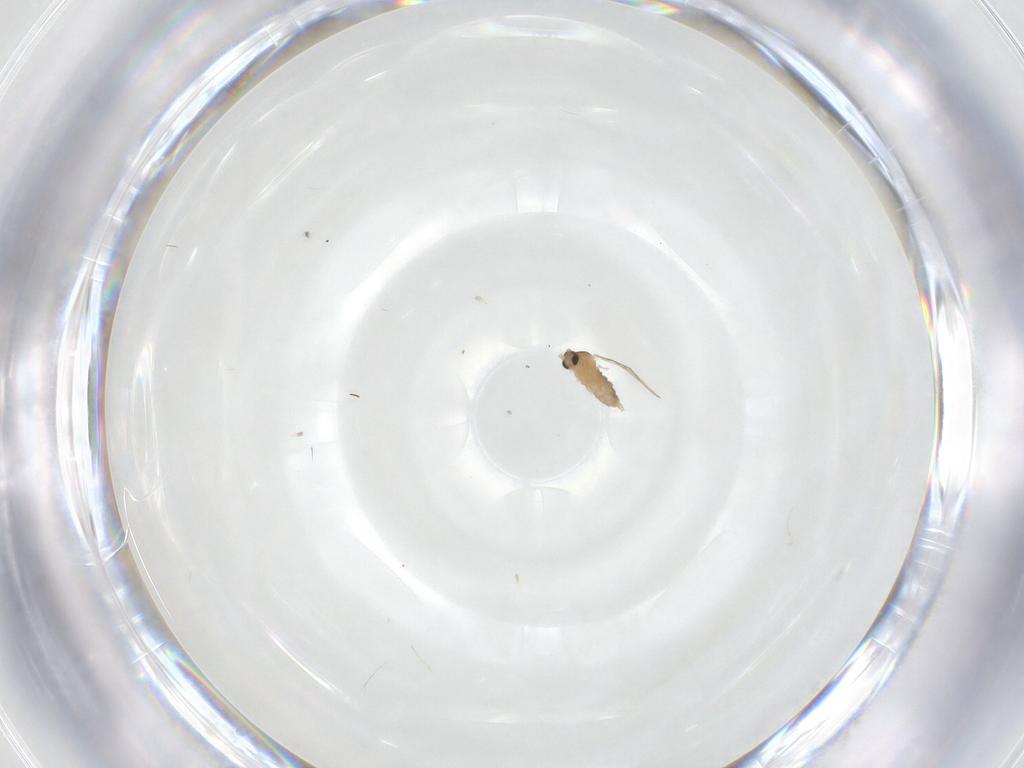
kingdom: Animalia
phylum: Arthropoda
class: Insecta
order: Diptera
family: Cecidomyiidae
